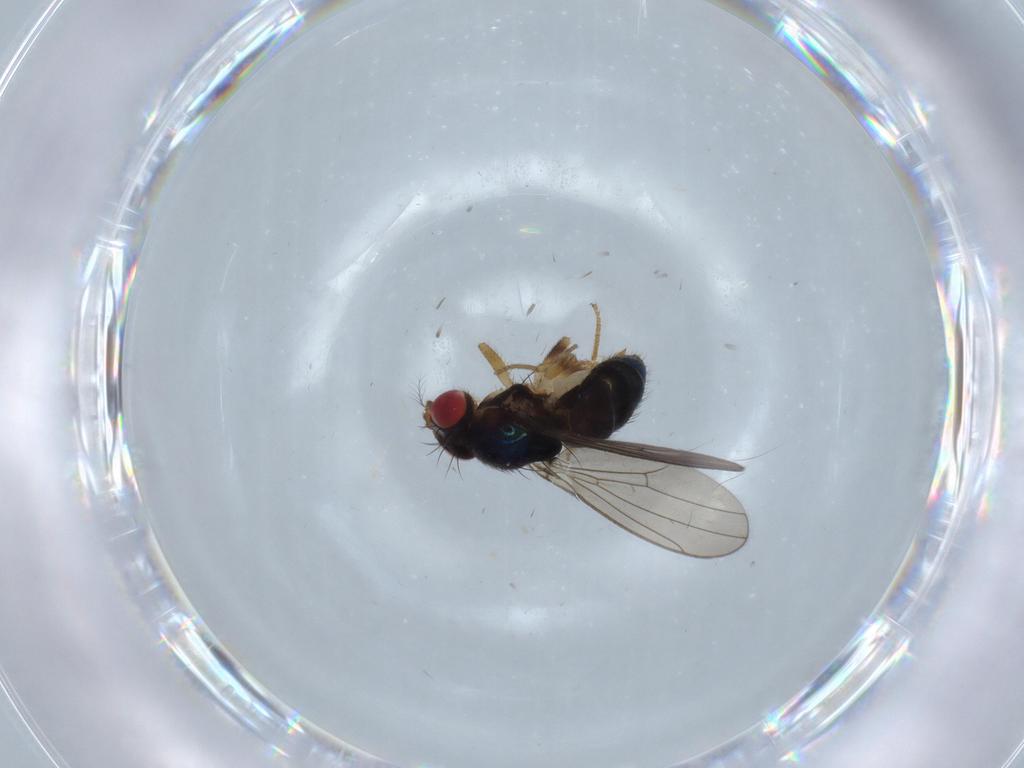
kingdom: Animalia
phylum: Arthropoda
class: Insecta
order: Diptera
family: Drosophilidae
